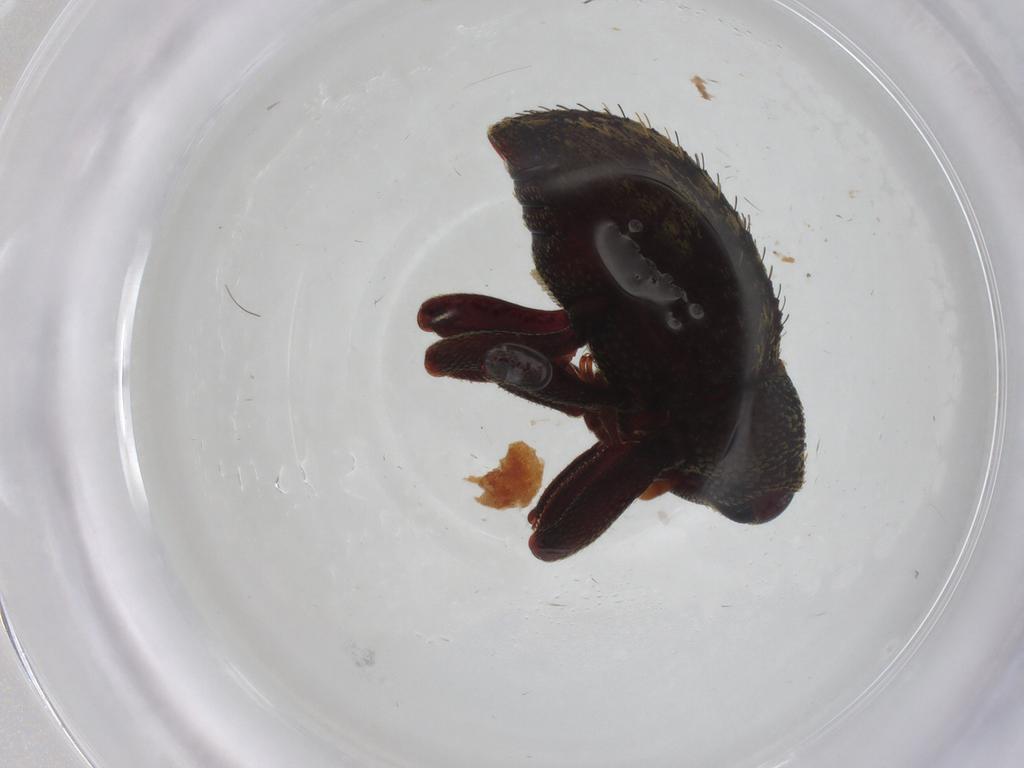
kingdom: Animalia
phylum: Arthropoda
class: Insecta
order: Coleoptera
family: Curculionidae
